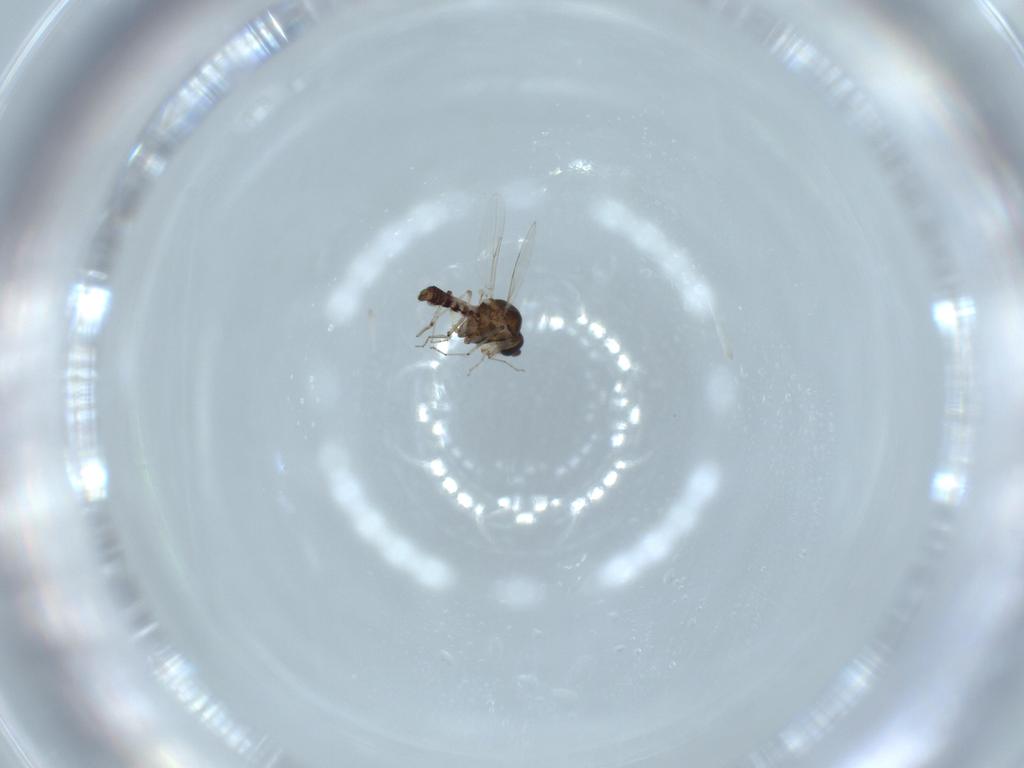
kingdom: Animalia
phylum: Arthropoda
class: Insecta
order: Diptera
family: Ceratopogonidae
